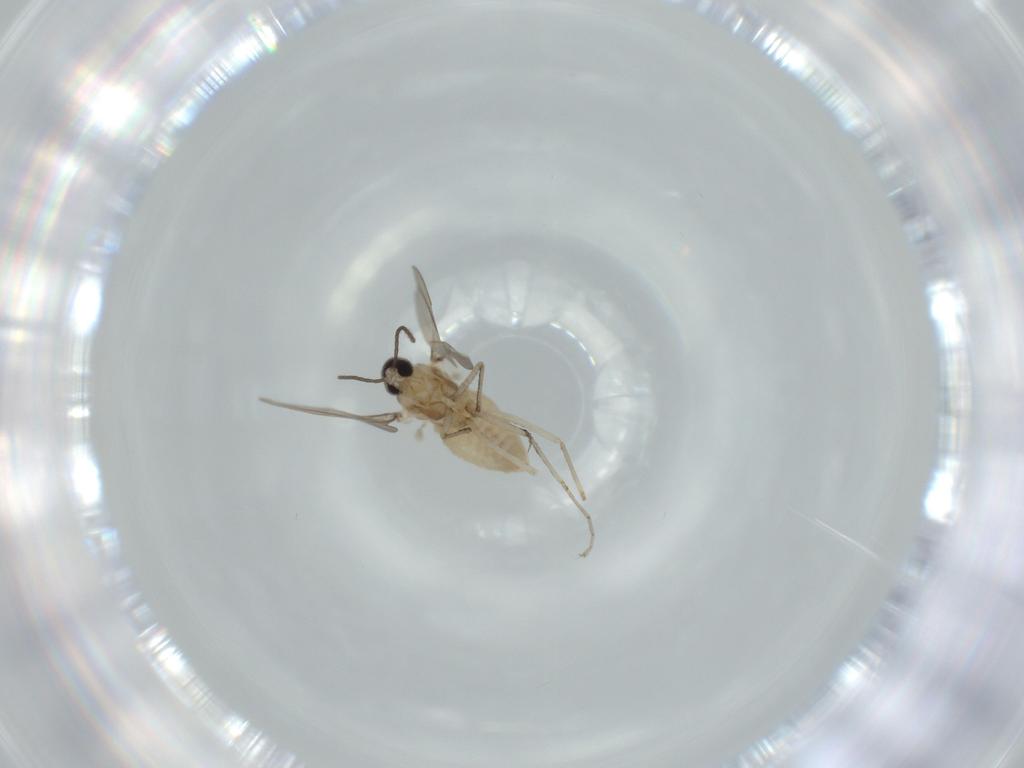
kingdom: Animalia
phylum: Arthropoda
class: Insecta
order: Diptera
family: Cecidomyiidae
